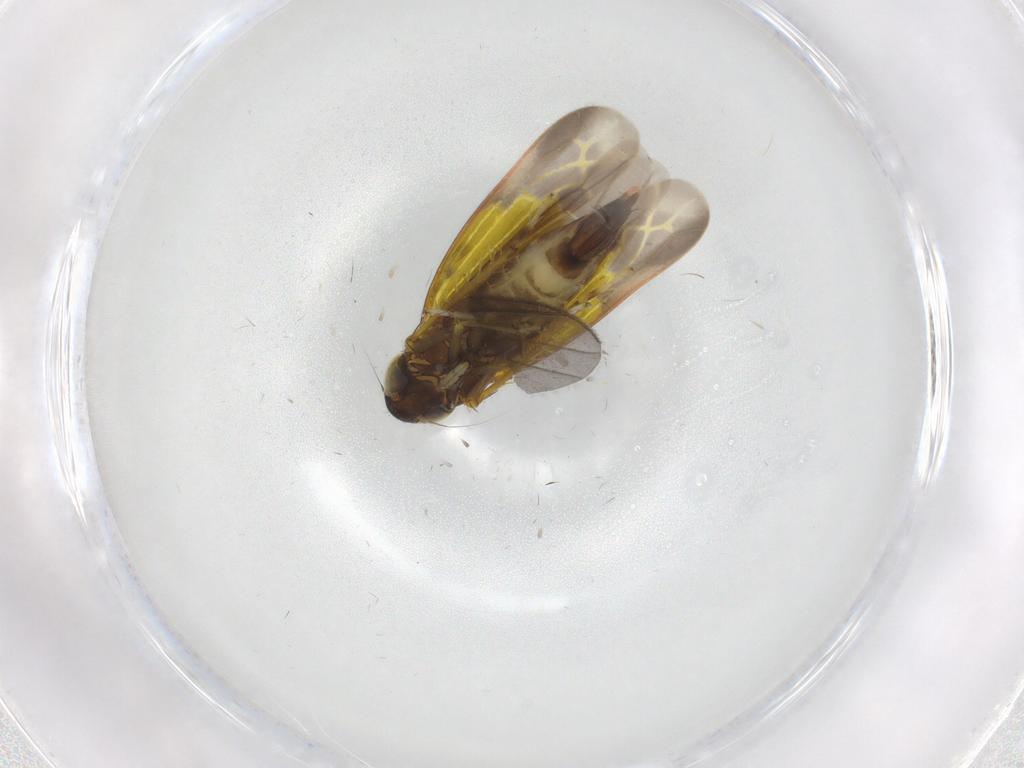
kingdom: Animalia
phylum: Arthropoda
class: Insecta
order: Hemiptera
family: Cicadellidae
